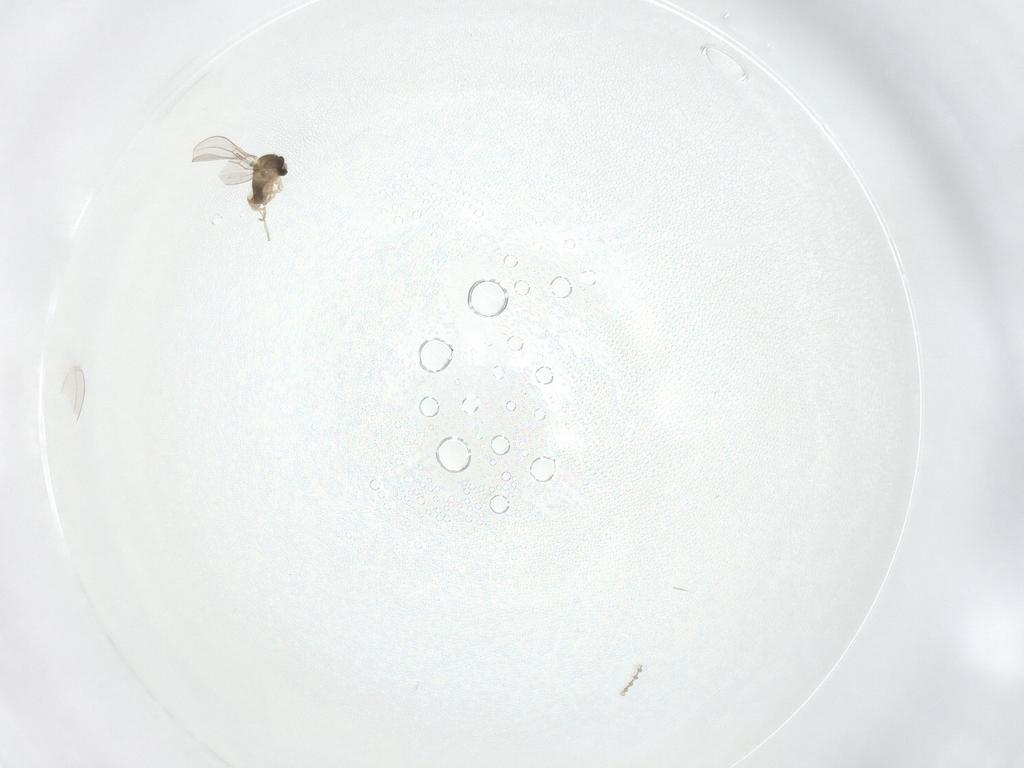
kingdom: Animalia
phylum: Arthropoda
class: Insecta
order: Diptera
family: Cecidomyiidae
